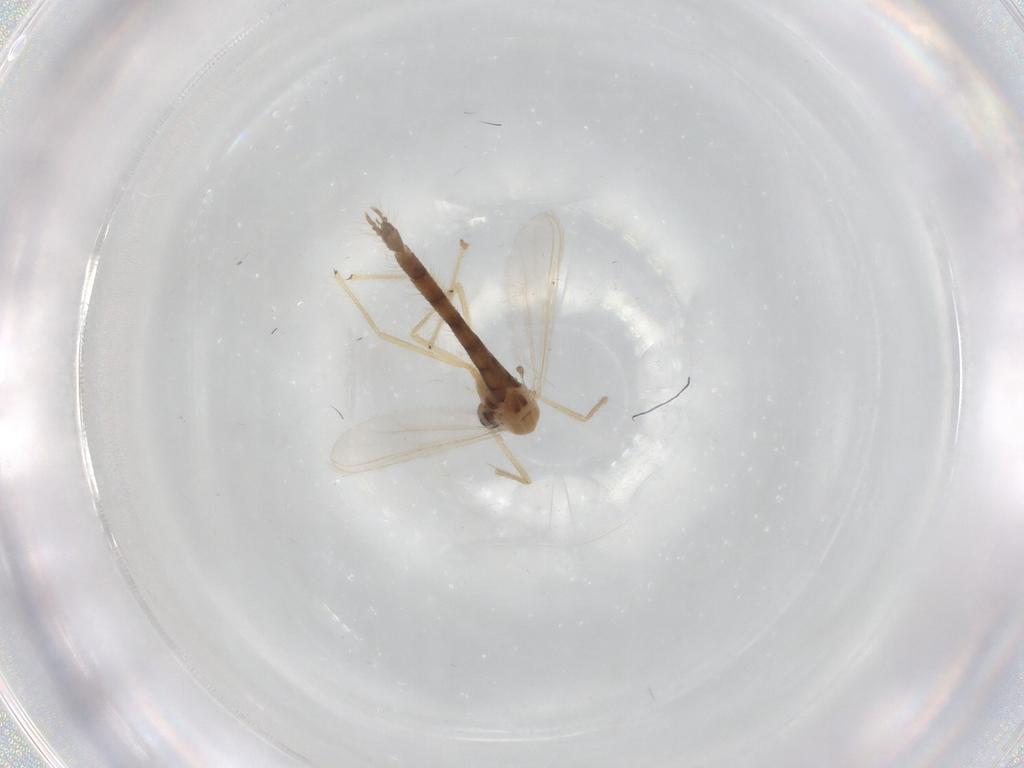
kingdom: Animalia
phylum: Arthropoda
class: Insecta
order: Diptera
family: Chironomidae
